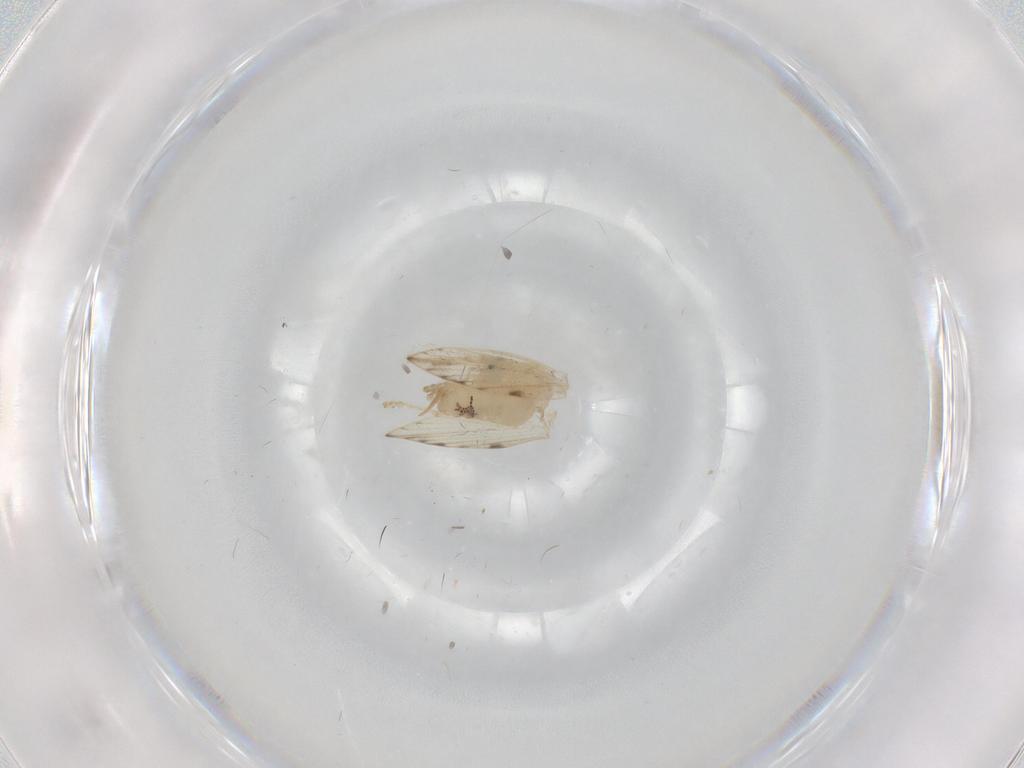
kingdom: Animalia
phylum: Arthropoda
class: Insecta
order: Diptera
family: Psychodidae
